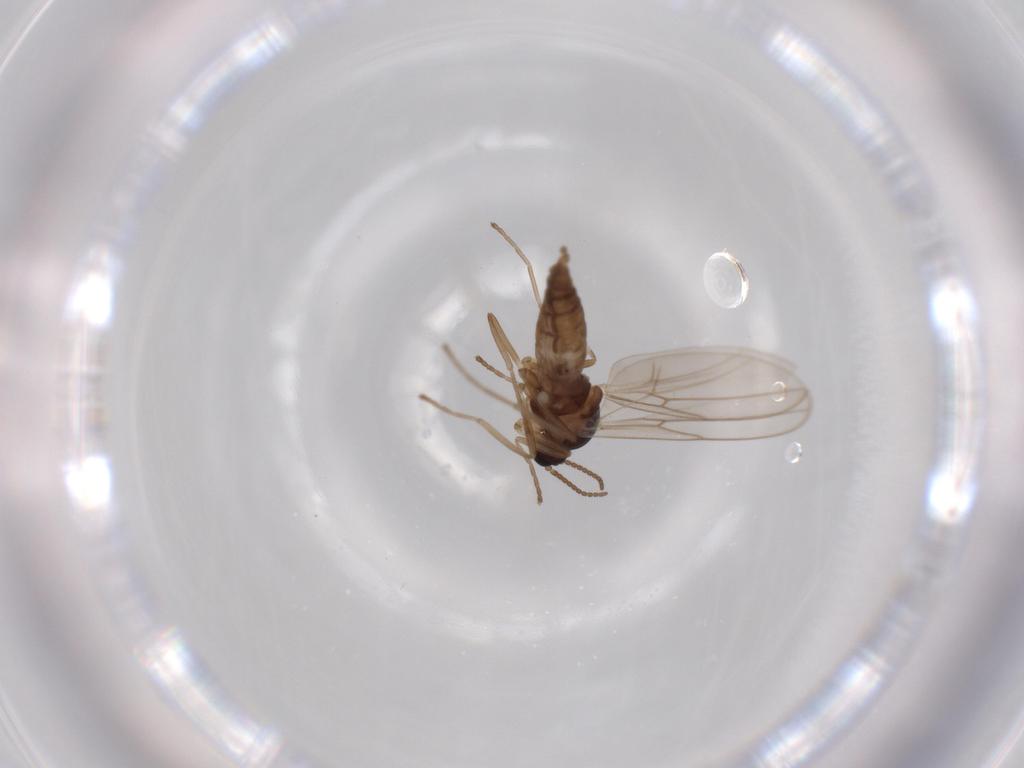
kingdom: Animalia
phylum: Arthropoda
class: Insecta
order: Diptera
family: Cecidomyiidae
